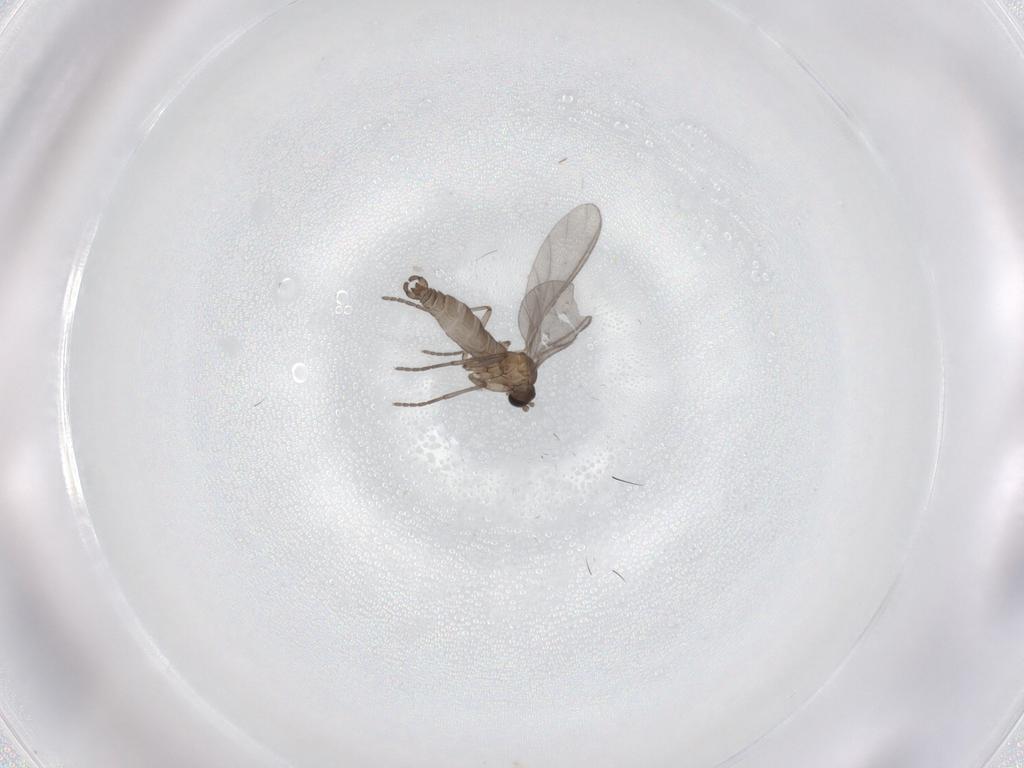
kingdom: Animalia
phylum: Arthropoda
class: Insecta
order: Diptera
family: Sciaridae
